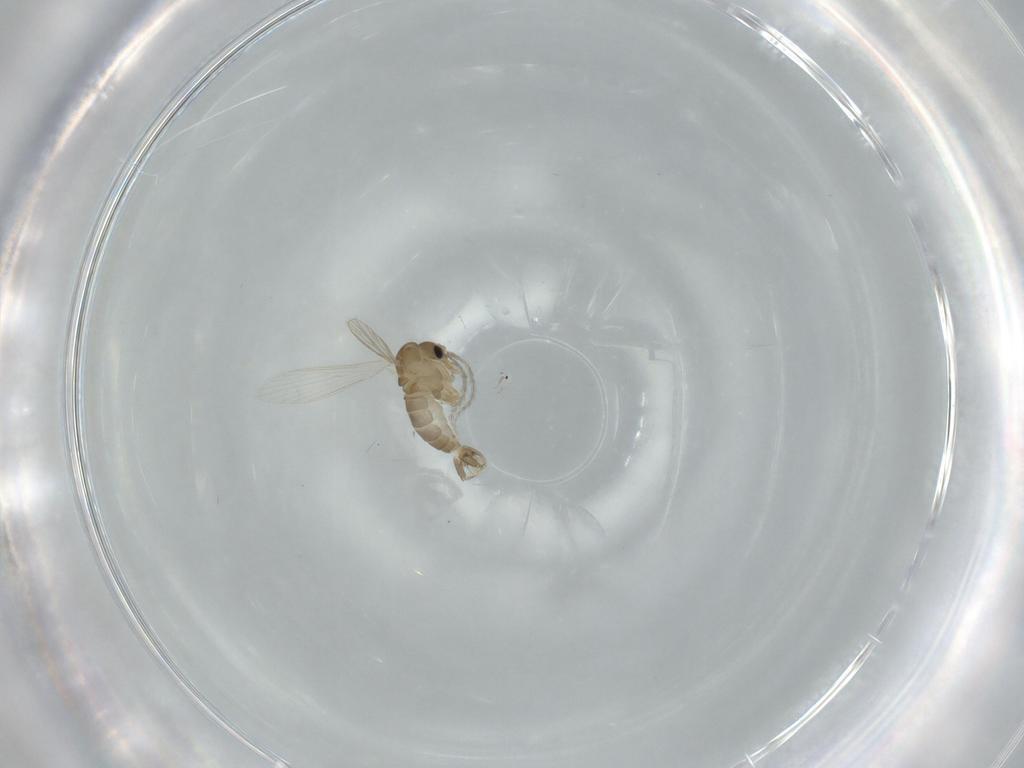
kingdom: Animalia
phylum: Arthropoda
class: Insecta
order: Diptera
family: Psychodidae
